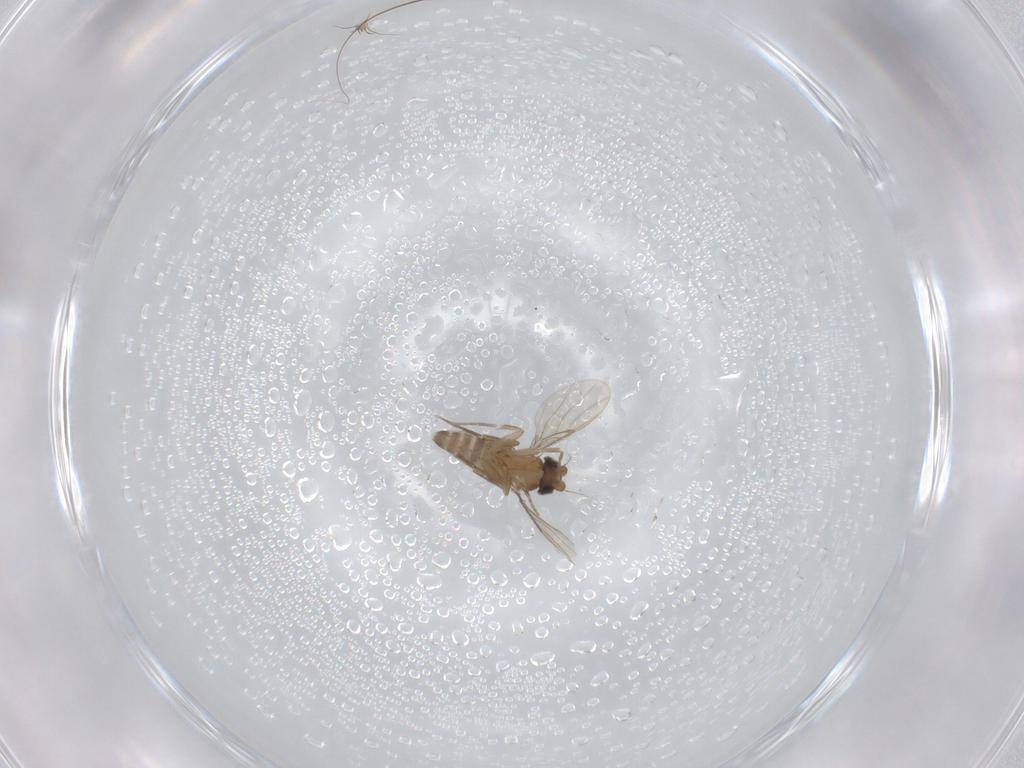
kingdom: Animalia
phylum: Arthropoda
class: Insecta
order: Diptera
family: Phoridae
